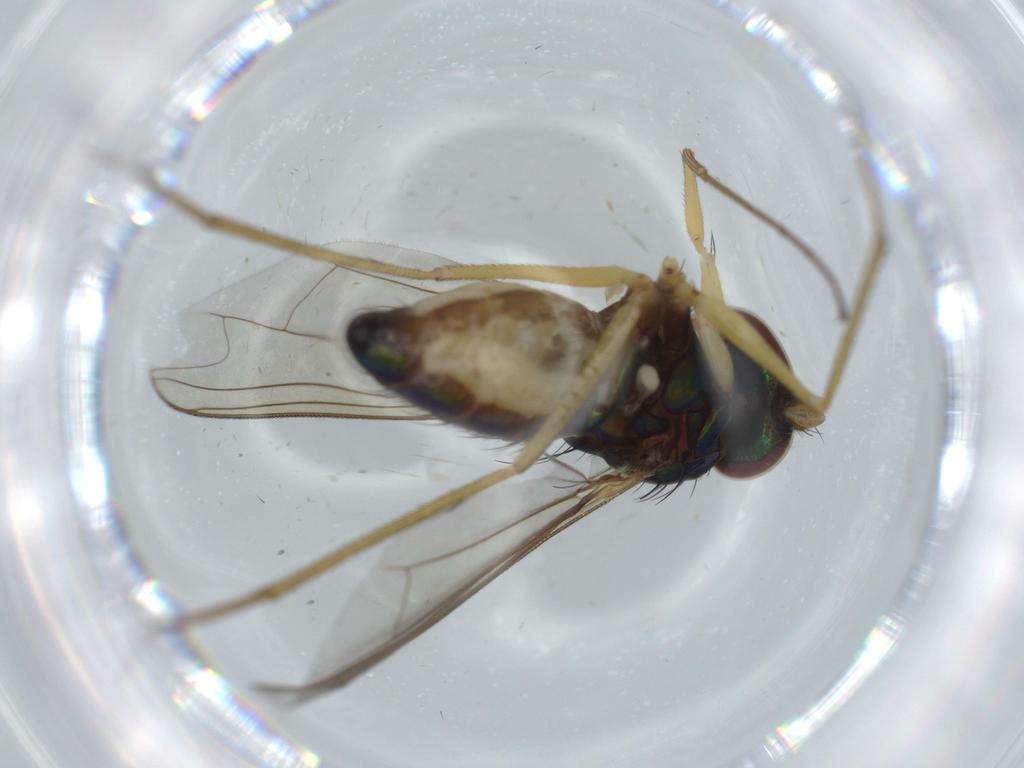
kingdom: Animalia
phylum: Arthropoda
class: Insecta
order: Diptera
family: Dolichopodidae
